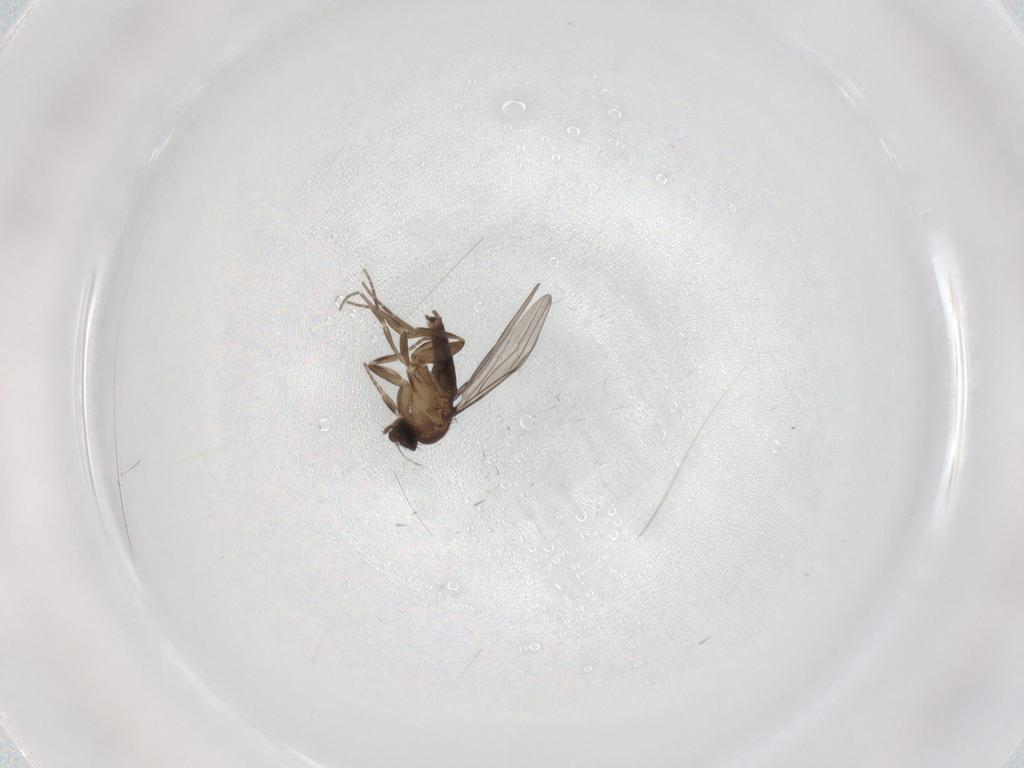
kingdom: Animalia
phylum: Arthropoda
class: Insecta
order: Diptera
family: Phoridae
